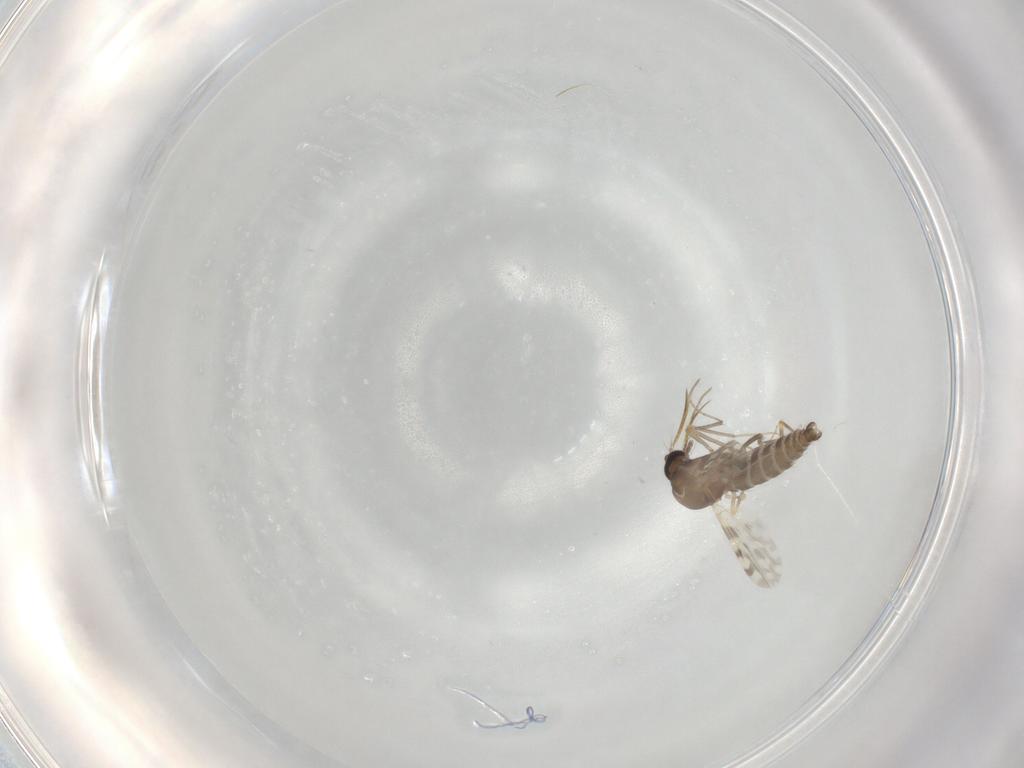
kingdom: Animalia
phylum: Arthropoda
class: Insecta
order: Diptera
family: Ceratopogonidae
